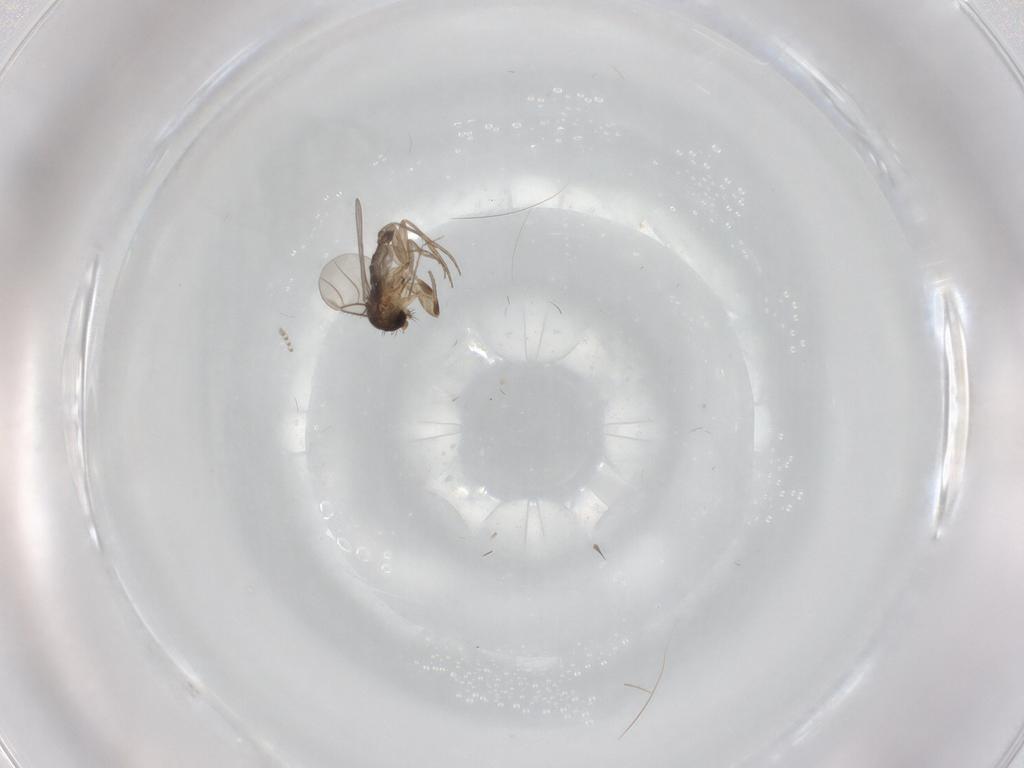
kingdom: Animalia
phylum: Arthropoda
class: Insecta
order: Diptera
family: Phoridae
